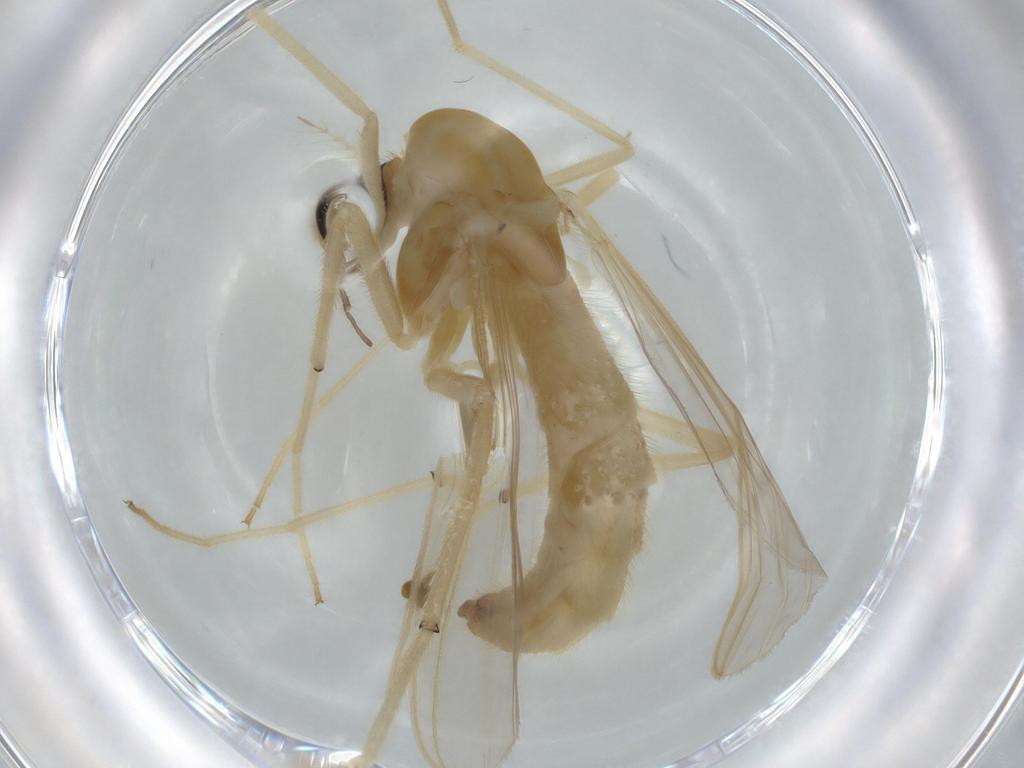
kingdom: Animalia
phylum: Arthropoda
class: Insecta
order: Diptera
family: Chironomidae
